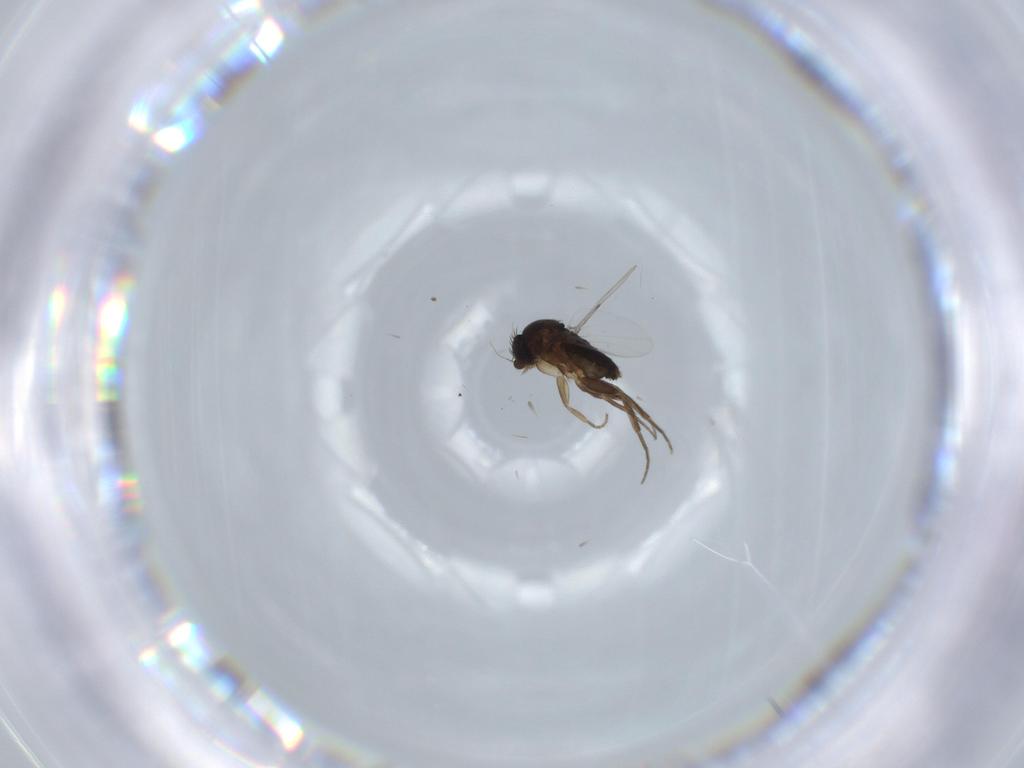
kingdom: Animalia
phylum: Arthropoda
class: Insecta
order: Diptera
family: Phoridae
